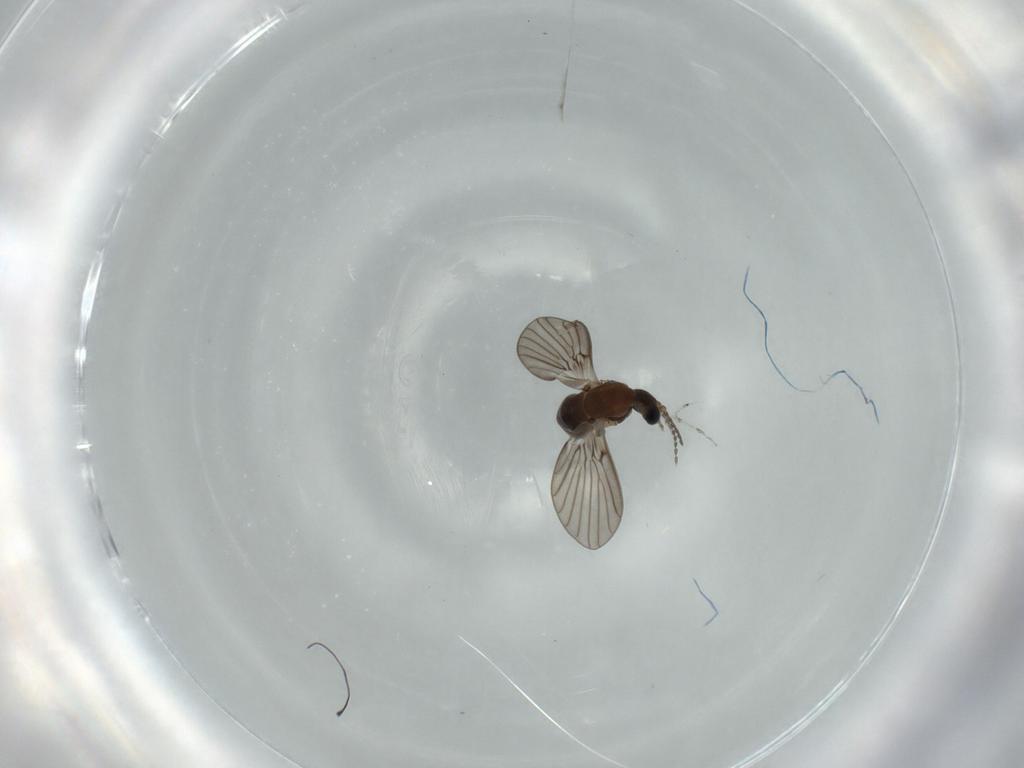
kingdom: Animalia
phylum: Arthropoda
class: Insecta
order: Diptera
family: Psychodidae
